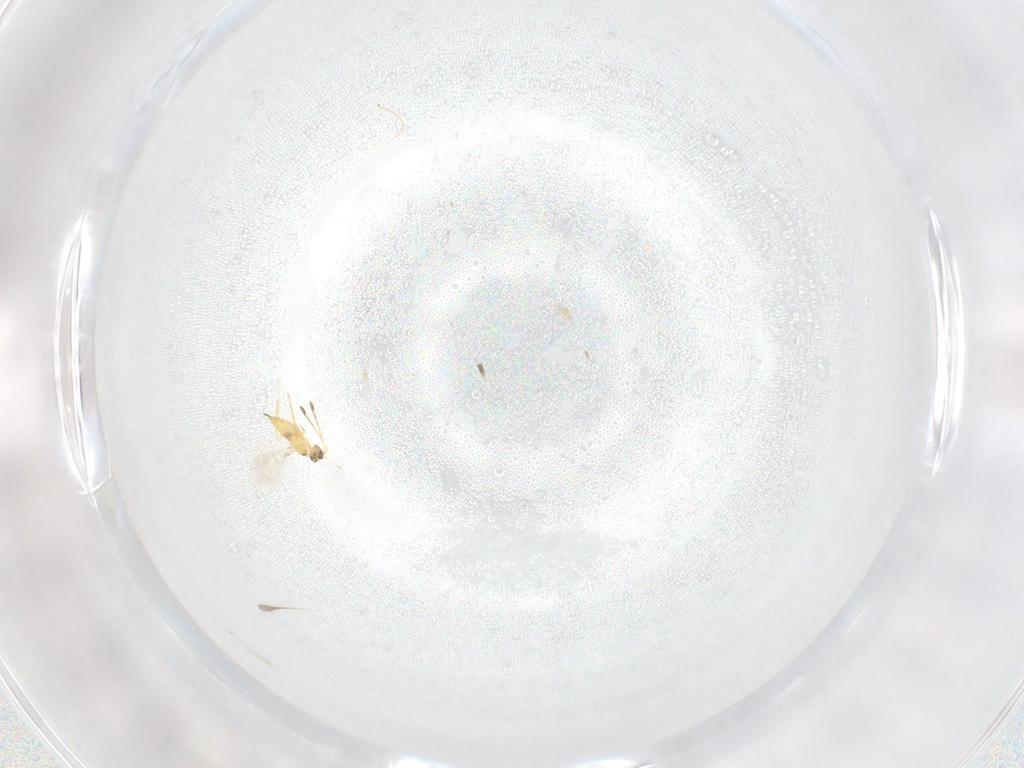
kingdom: Animalia
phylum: Arthropoda
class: Insecta
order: Hymenoptera
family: Mymaridae
